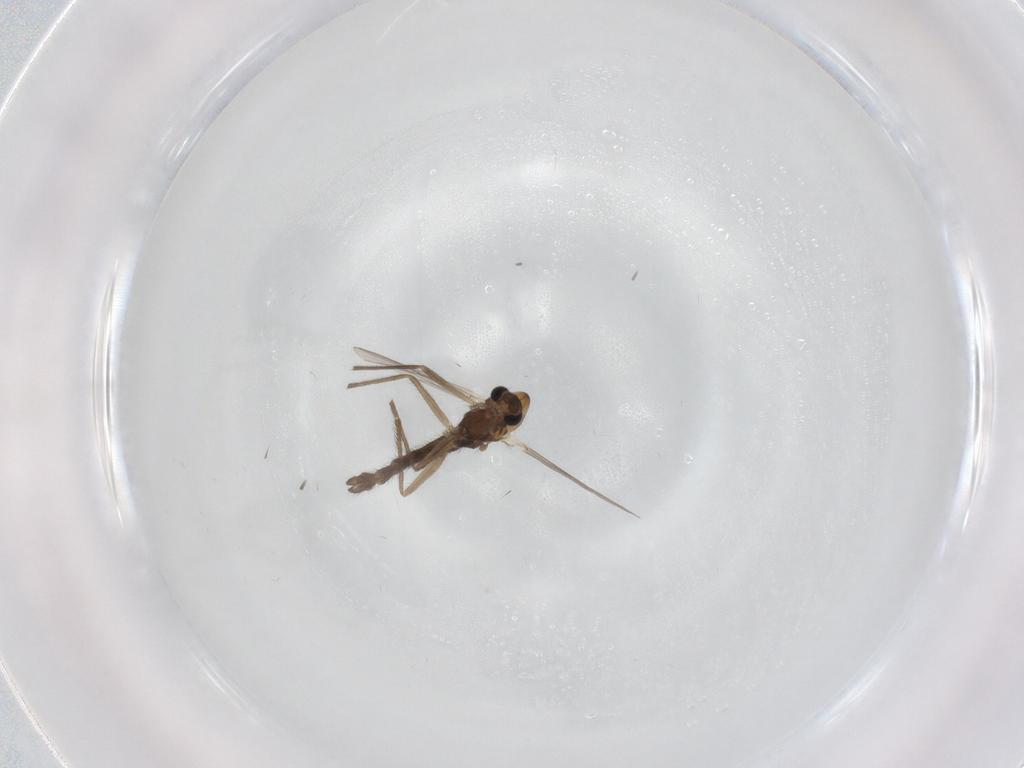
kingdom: Animalia
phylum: Arthropoda
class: Insecta
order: Diptera
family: Chironomidae
